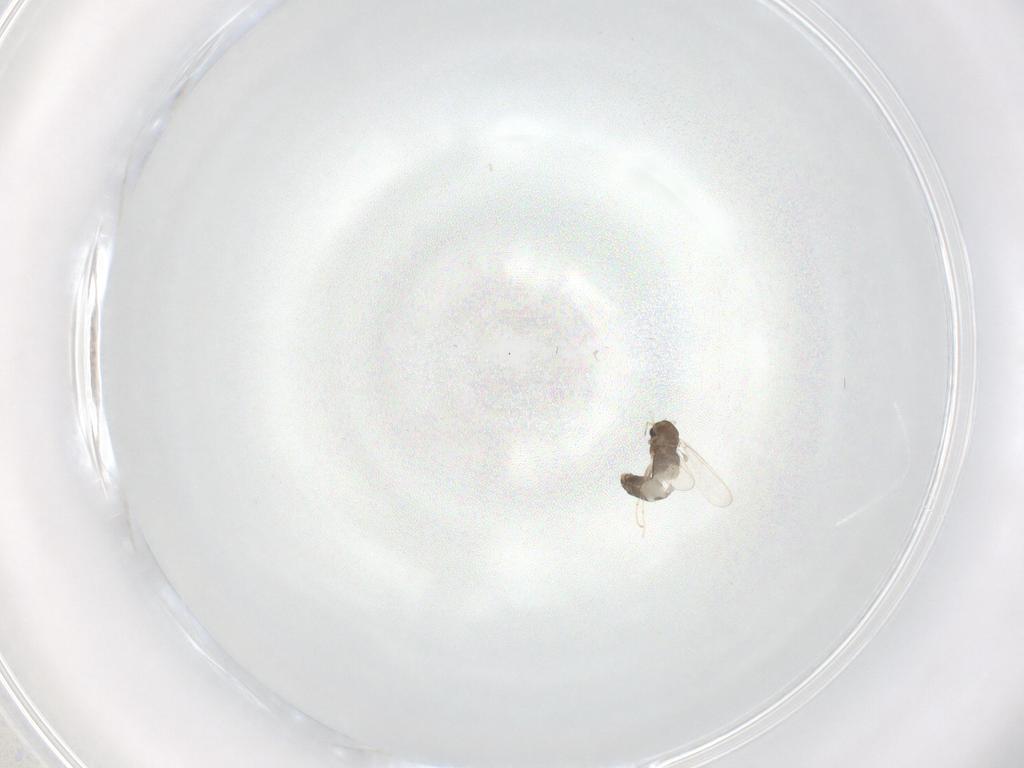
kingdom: Animalia
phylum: Arthropoda
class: Insecta
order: Diptera
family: Chironomidae
